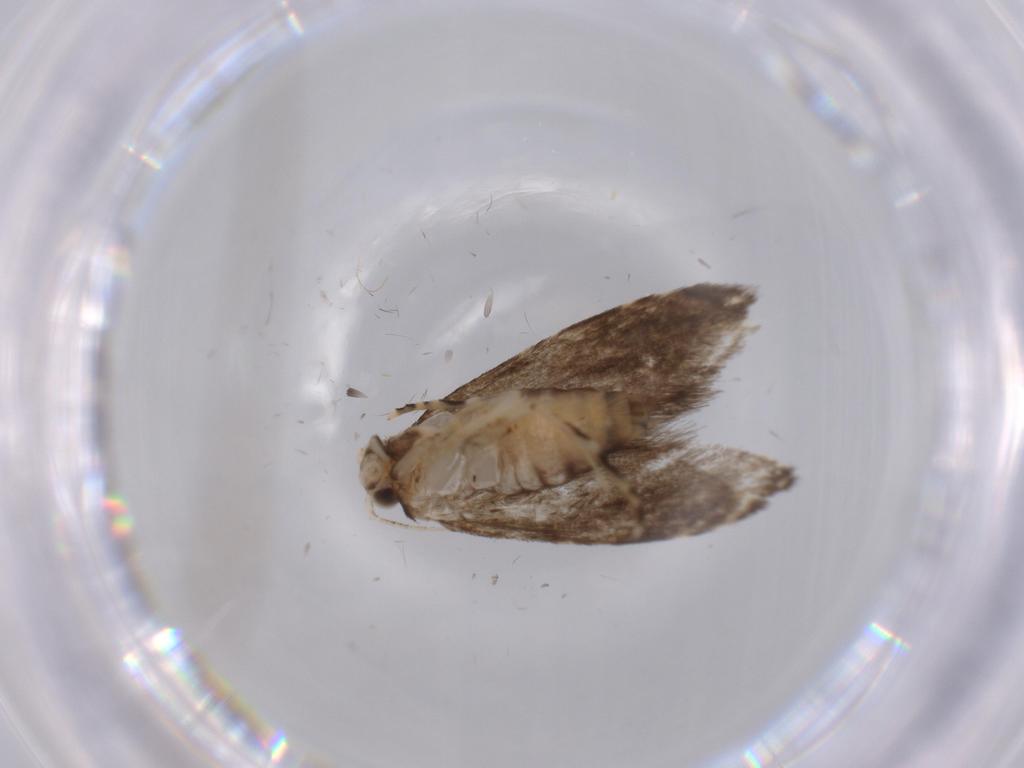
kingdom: Animalia
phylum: Arthropoda
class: Insecta
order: Lepidoptera
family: Tineidae
